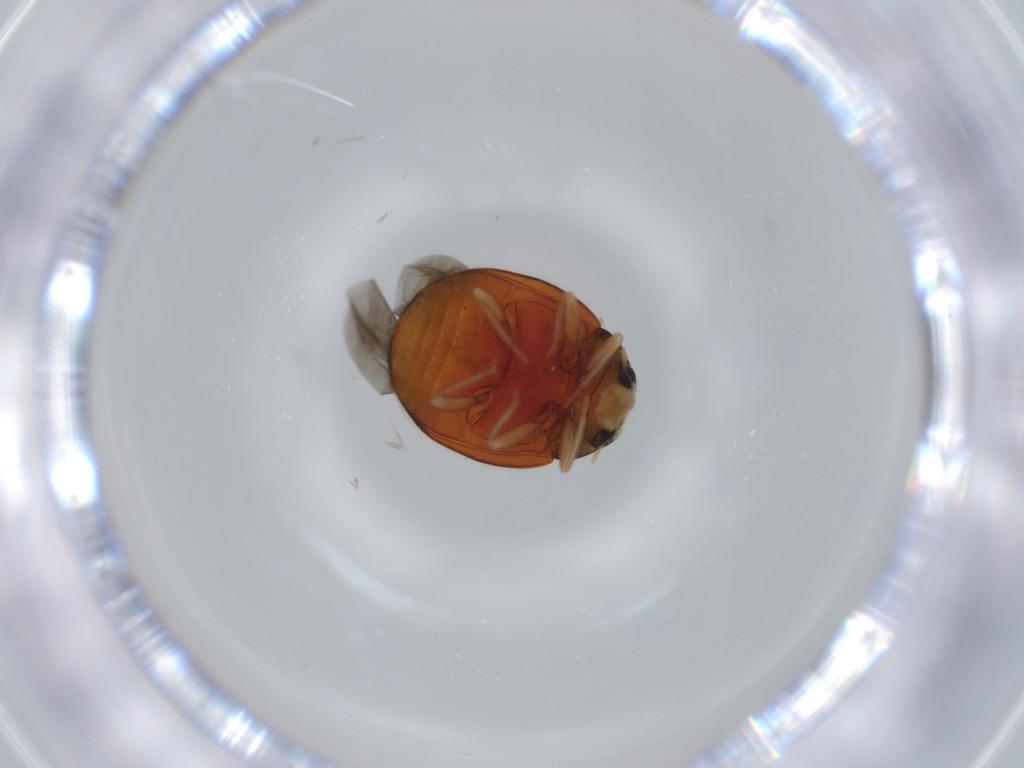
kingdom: Animalia
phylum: Arthropoda
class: Insecta
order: Coleoptera
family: Coccinellidae
